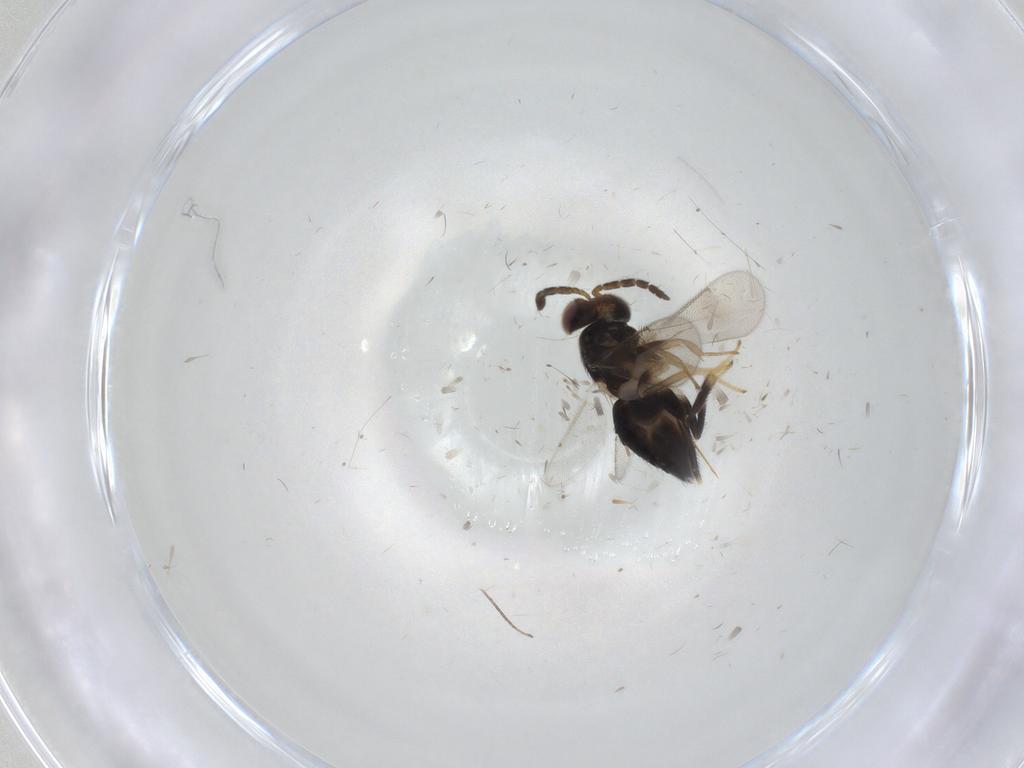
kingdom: Animalia
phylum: Arthropoda
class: Insecta
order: Hymenoptera
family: Aphelinidae
